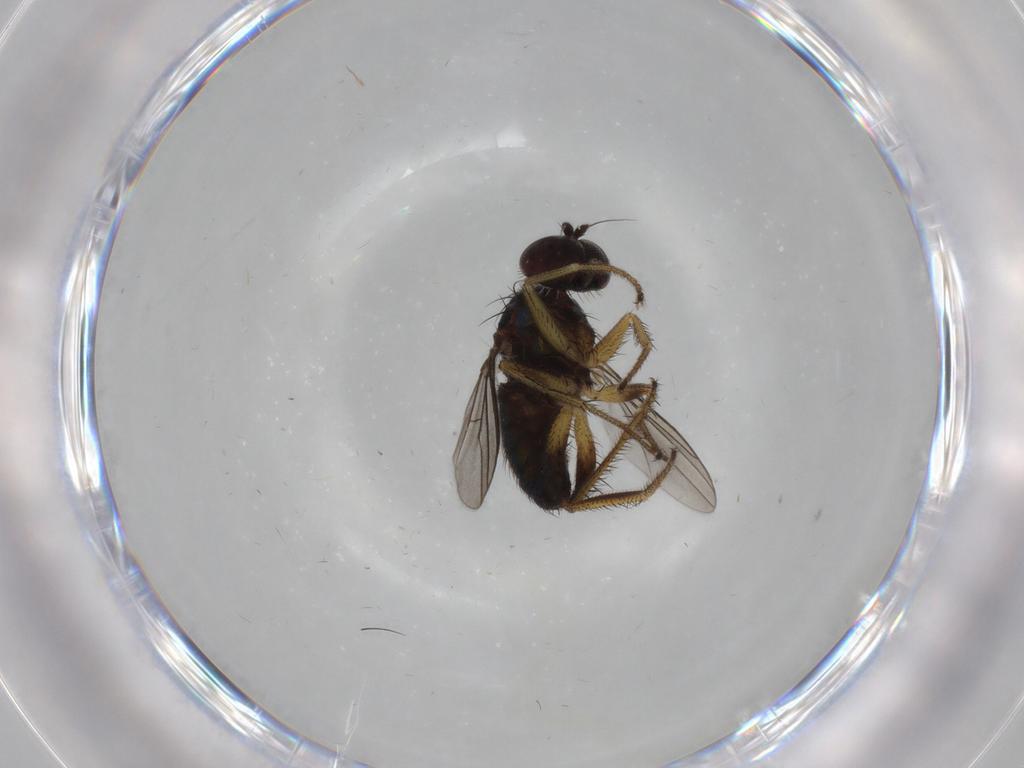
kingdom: Animalia
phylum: Arthropoda
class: Insecta
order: Diptera
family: Dolichopodidae
